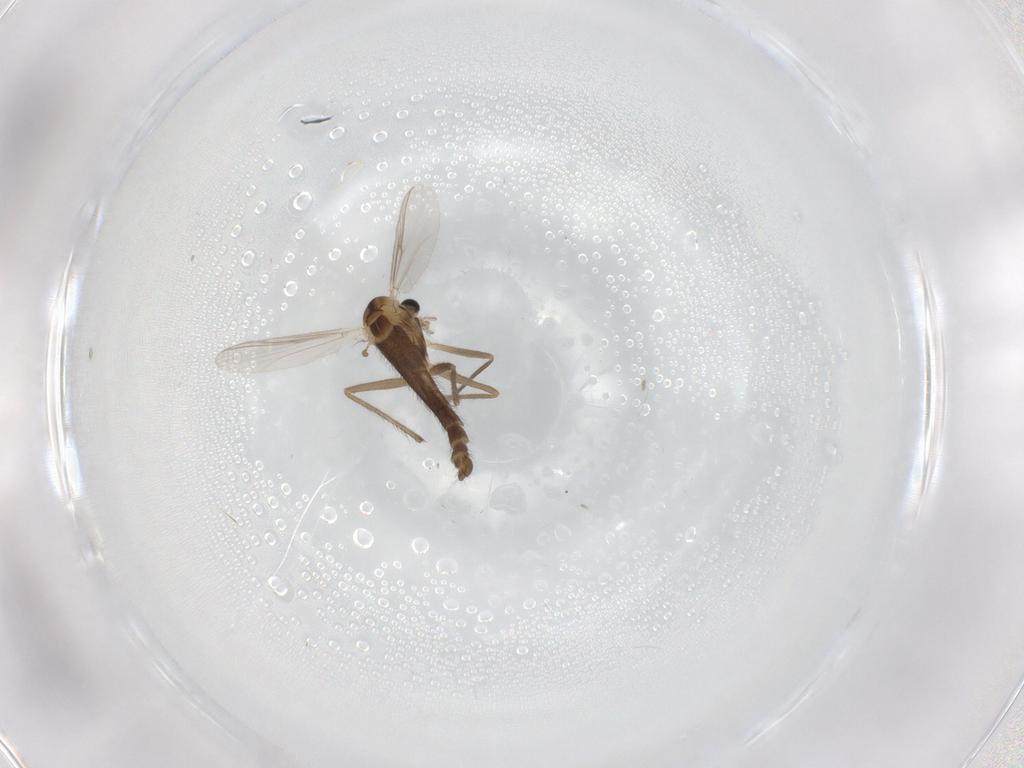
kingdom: Animalia
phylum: Arthropoda
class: Insecta
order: Diptera
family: Chironomidae
